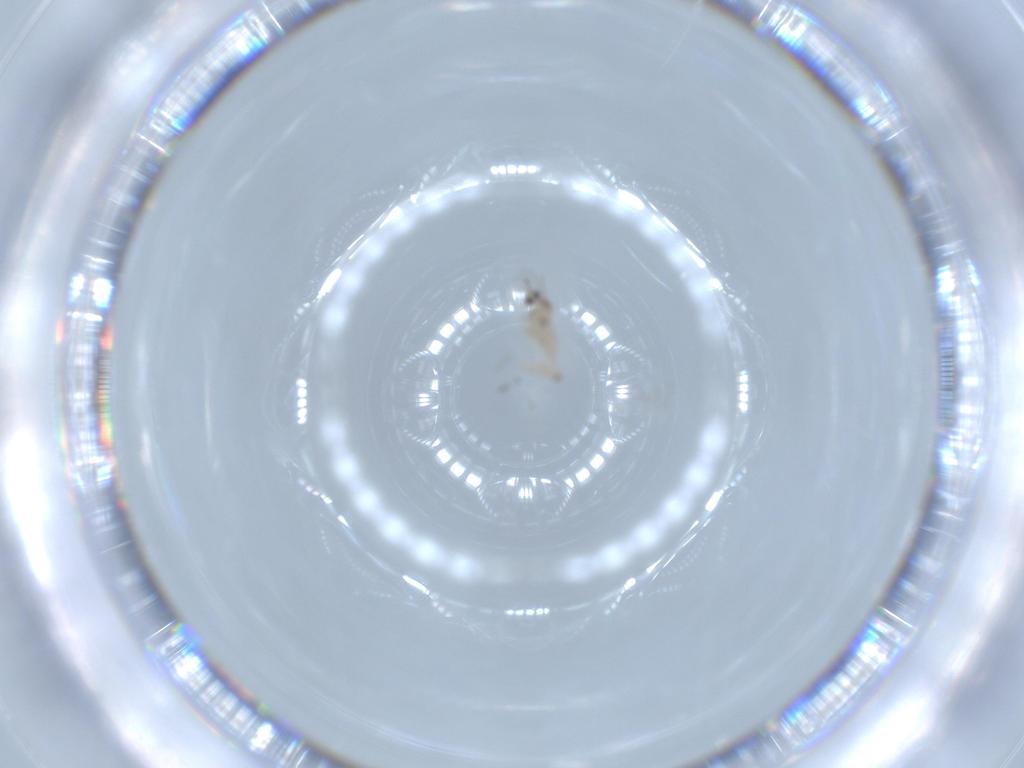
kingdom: Animalia
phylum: Arthropoda
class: Insecta
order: Diptera
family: Cecidomyiidae
